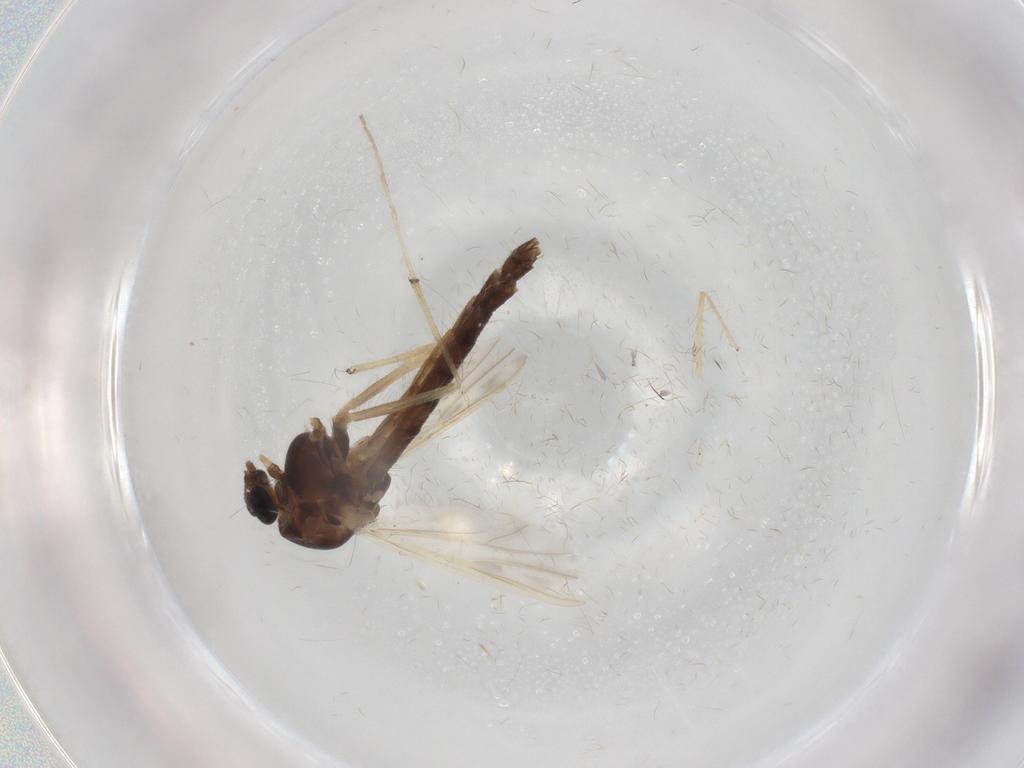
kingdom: Animalia
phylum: Arthropoda
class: Insecta
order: Diptera
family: Chironomidae
